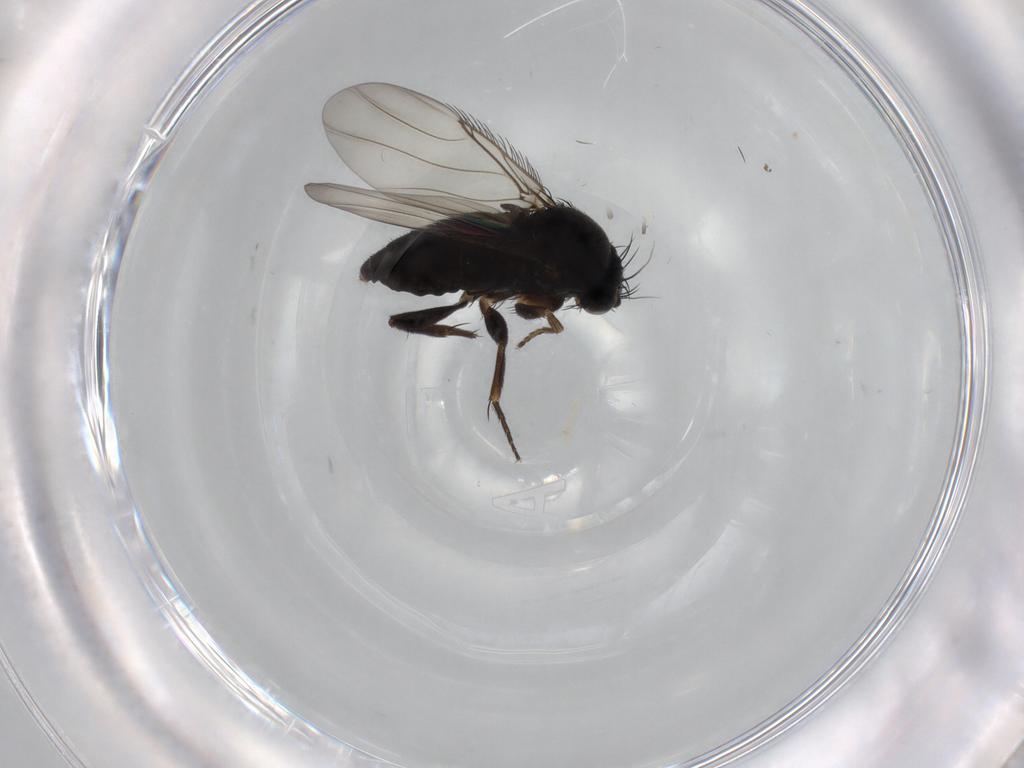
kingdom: Animalia
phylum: Arthropoda
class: Insecta
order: Diptera
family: Phoridae
